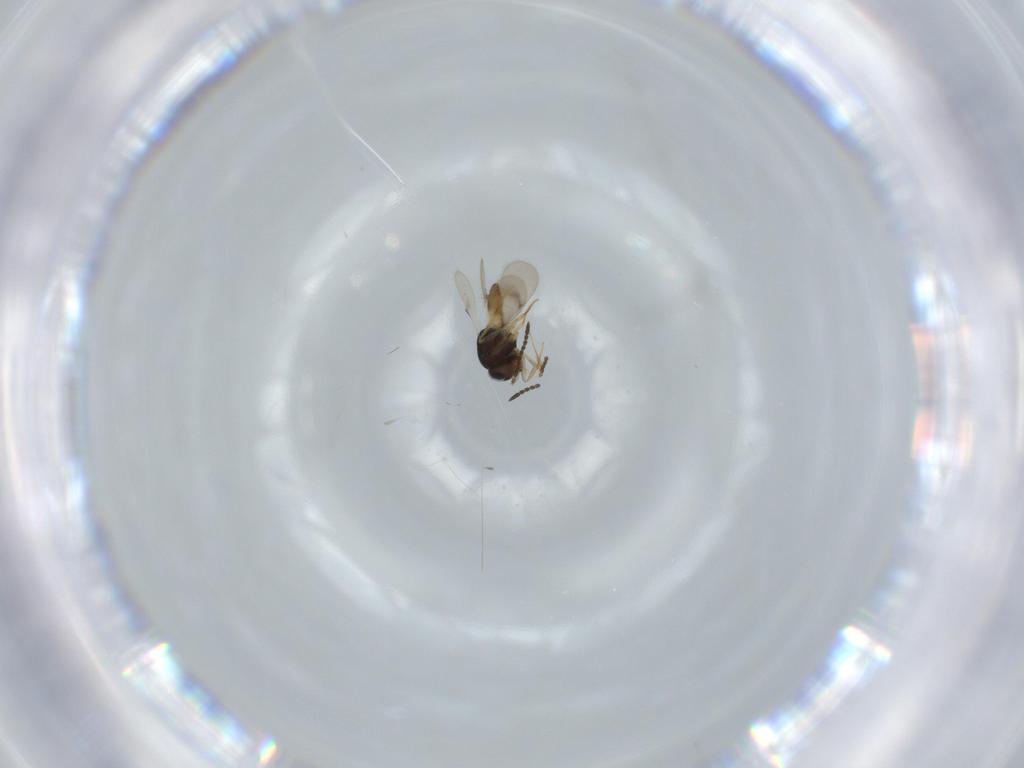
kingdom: Animalia
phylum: Arthropoda
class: Insecta
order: Hymenoptera
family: Scelionidae
